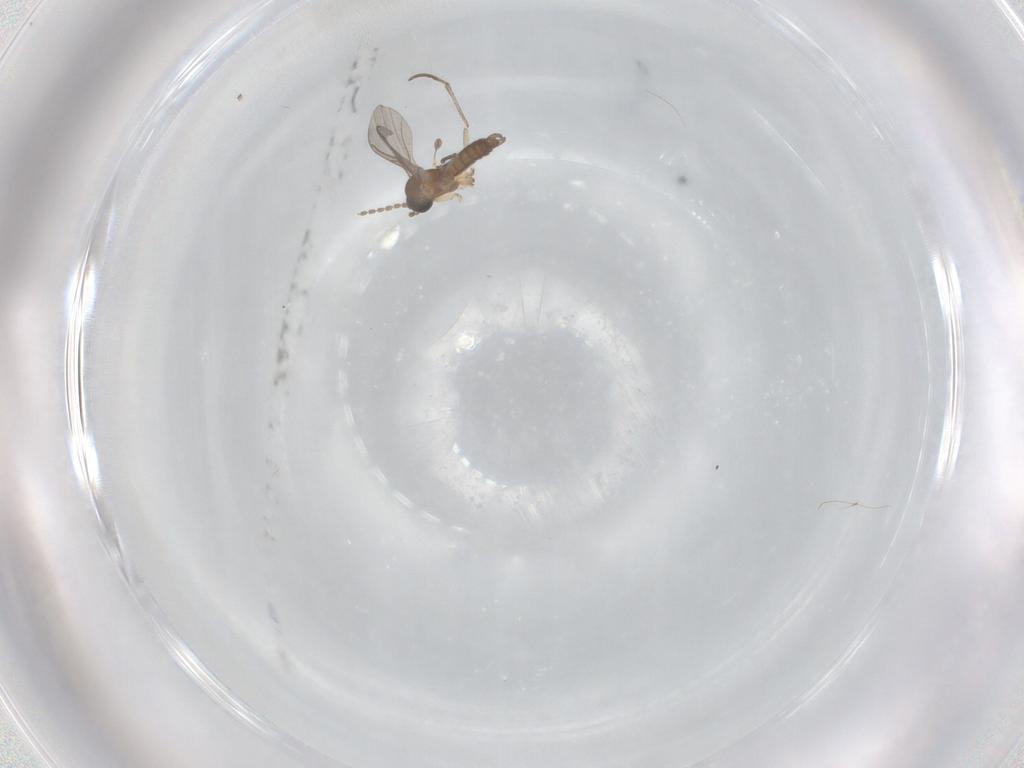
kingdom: Animalia
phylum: Arthropoda
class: Insecta
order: Diptera
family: Sciaridae
